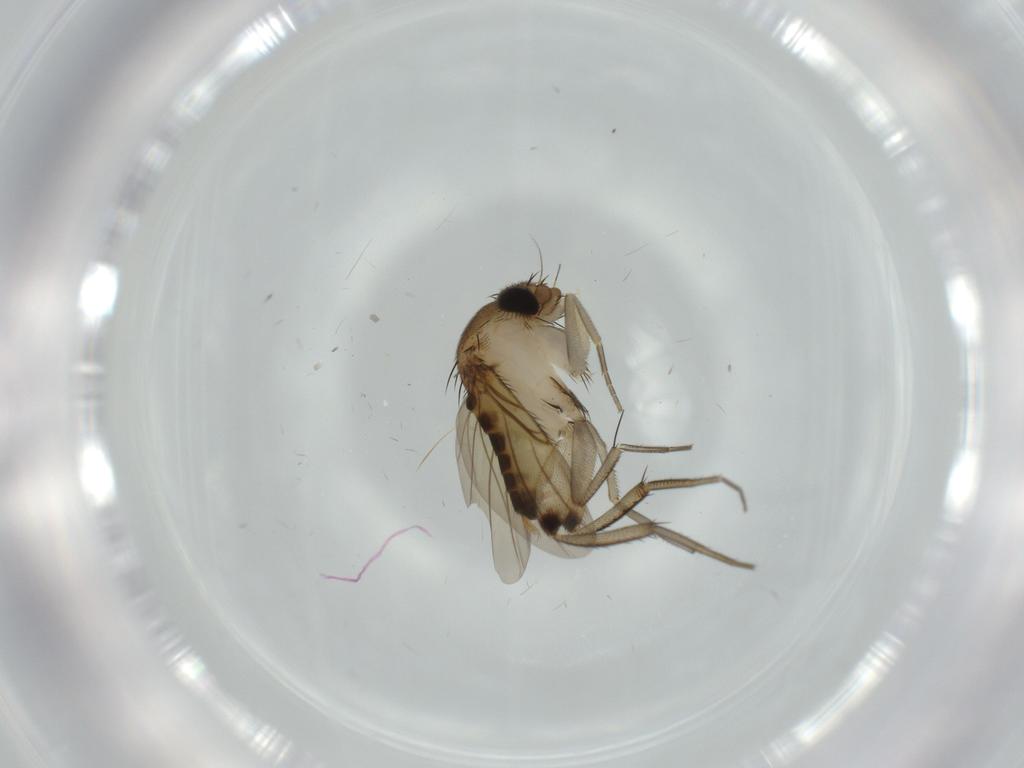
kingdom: Animalia
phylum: Arthropoda
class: Insecta
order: Diptera
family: Phoridae
